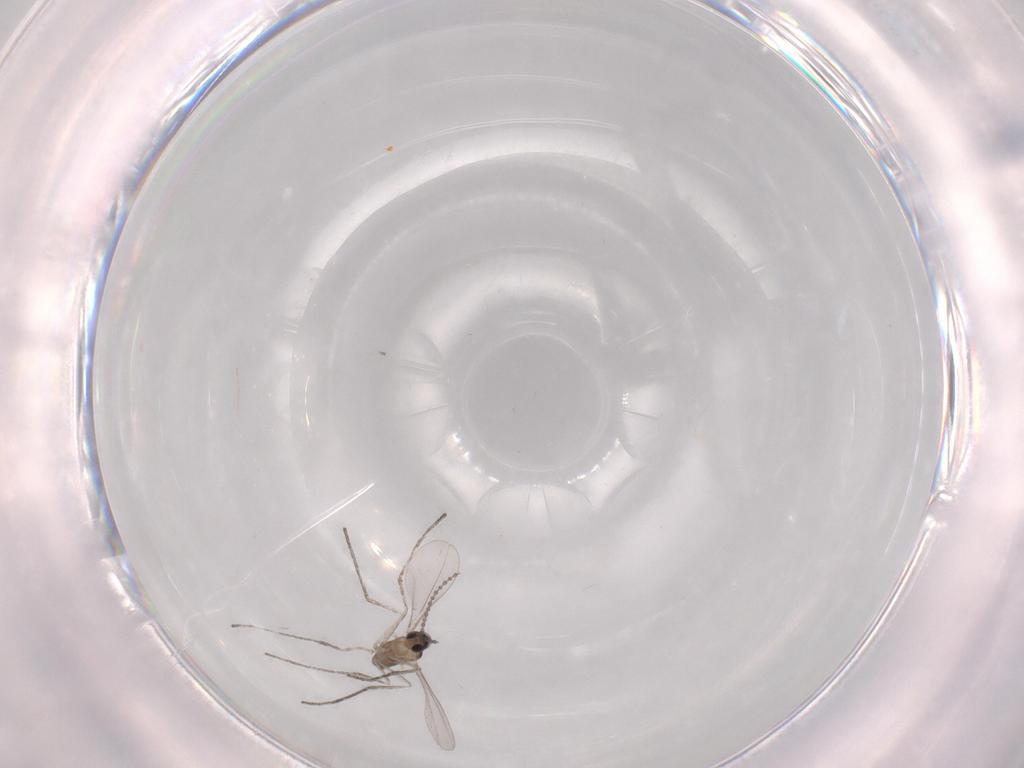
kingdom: Animalia
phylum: Arthropoda
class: Insecta
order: Diptera
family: Cecidomyiidae
